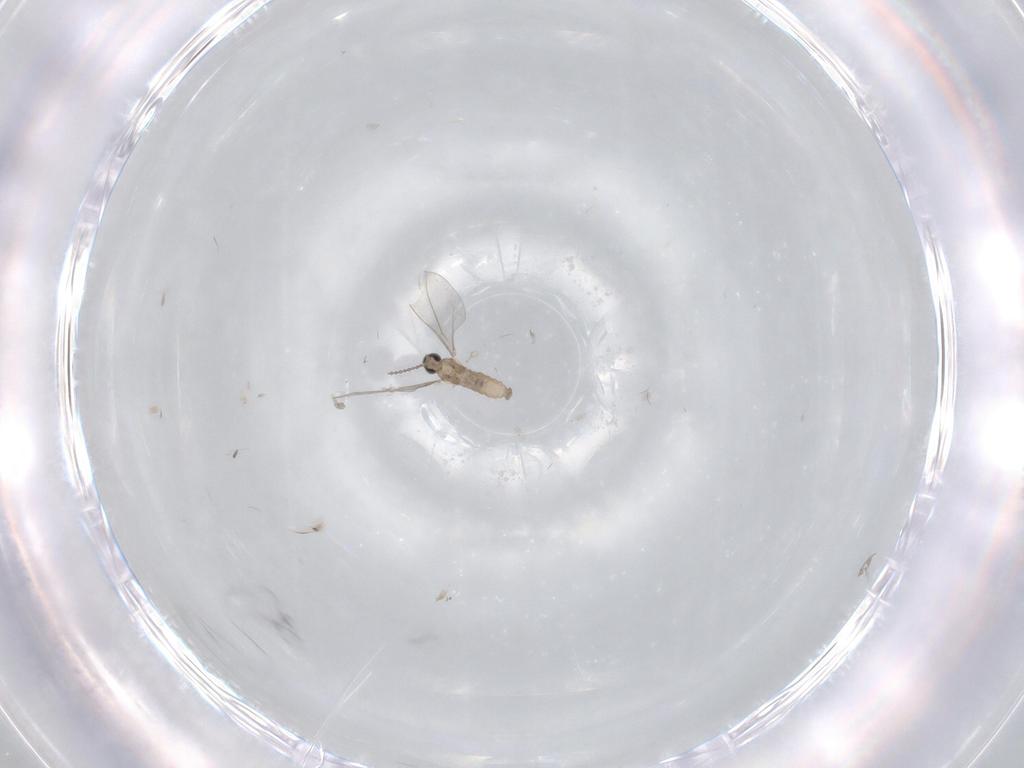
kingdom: Animalia
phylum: Arthropoda
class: Insecta
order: Diptera
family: Cecidomyiidae
